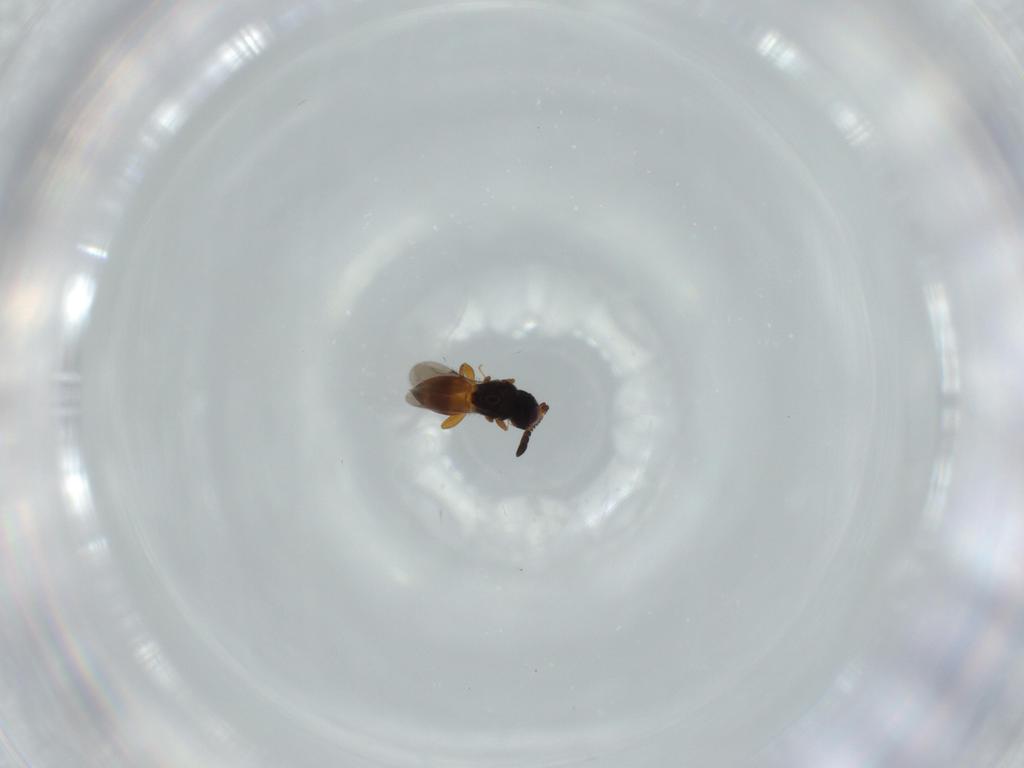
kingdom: Animalia
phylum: Arthropoda
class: Insecta
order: Hymenoptera
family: Scelionidae
